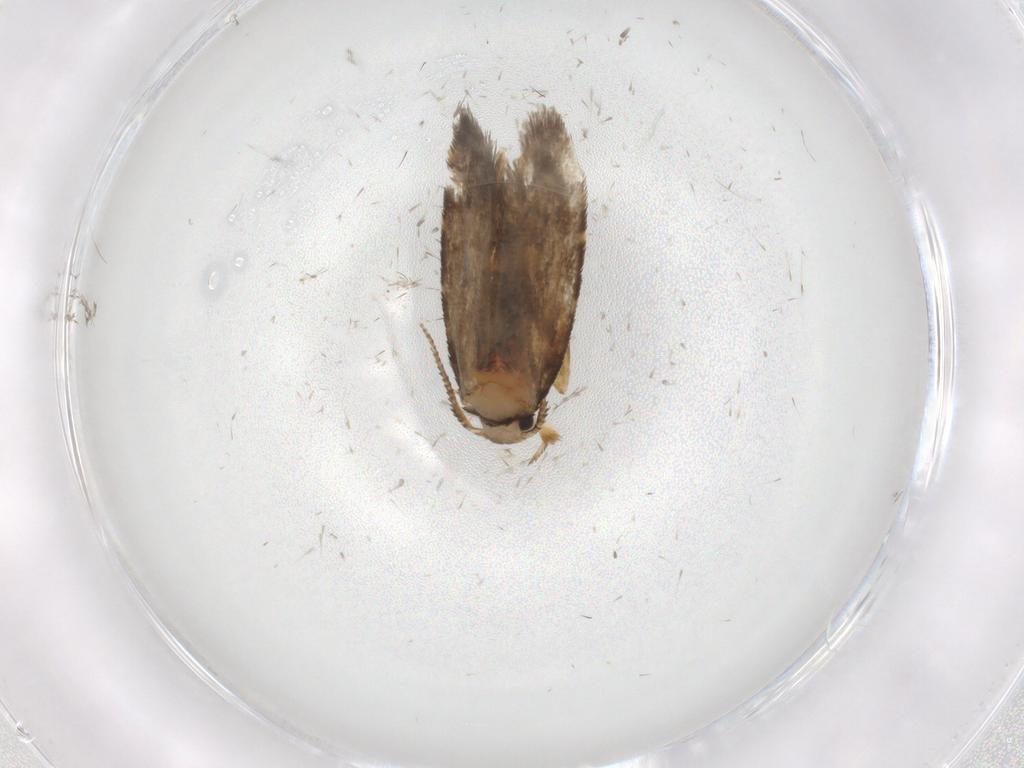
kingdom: Animalia
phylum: Arthropoda
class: Insecta
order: Lepidoptera
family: Psychidae
